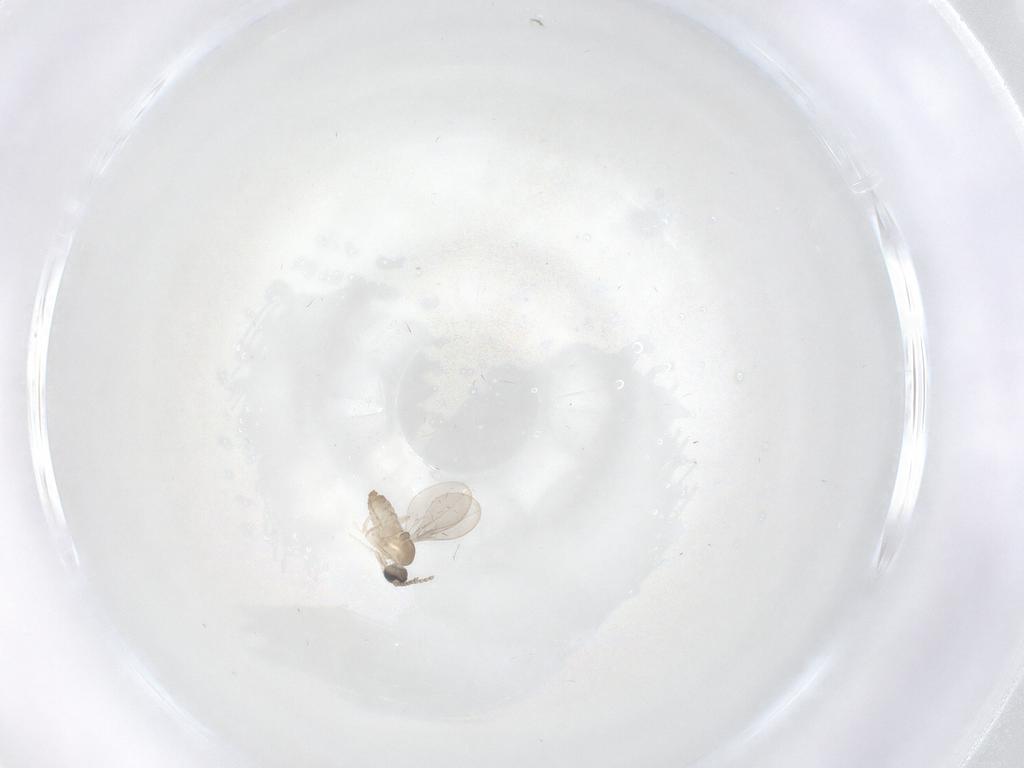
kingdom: Animalia
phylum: Arthropoda
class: Insecta
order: Diptera
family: Cecidomyiidae
